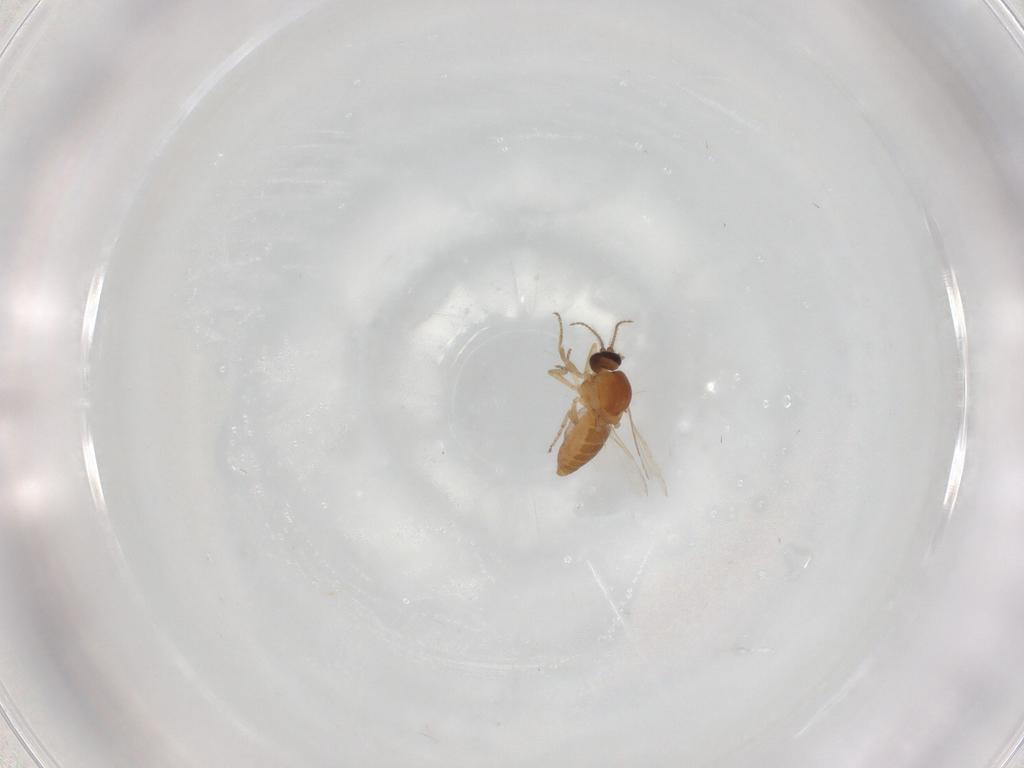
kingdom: Animalia
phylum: Arthropoda
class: Insecta
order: Diptera
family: Ceratopogonidae
